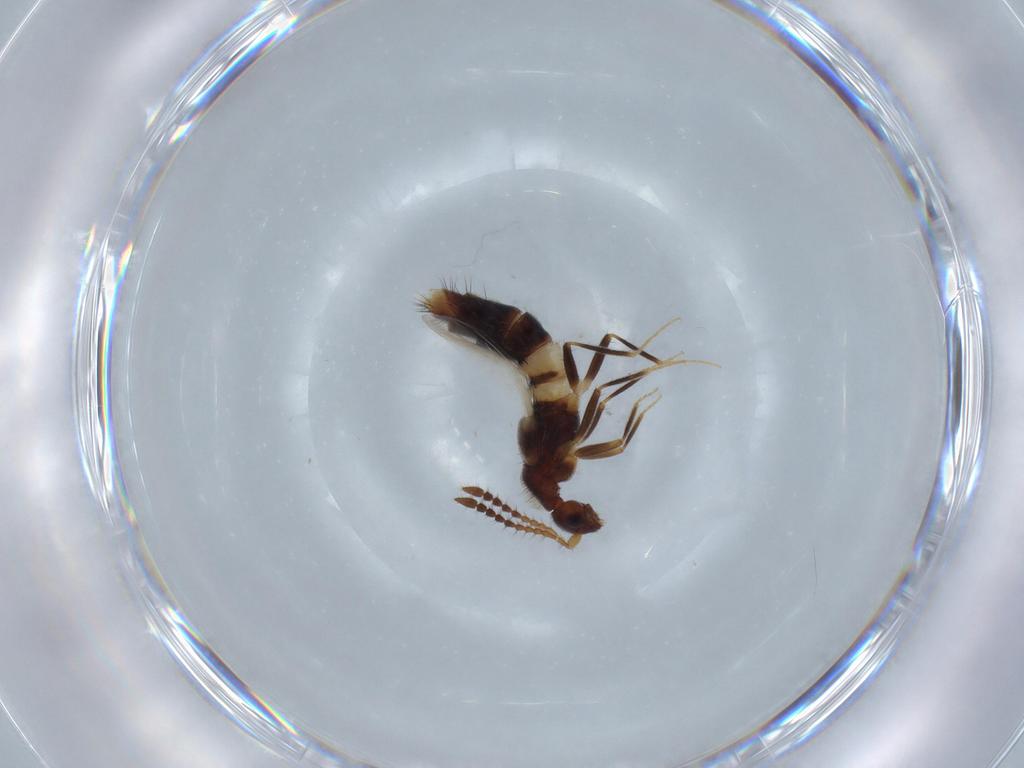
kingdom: Animalia
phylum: Arthropoda
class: Insecta
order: Coleoptera
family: Staphylinidae
